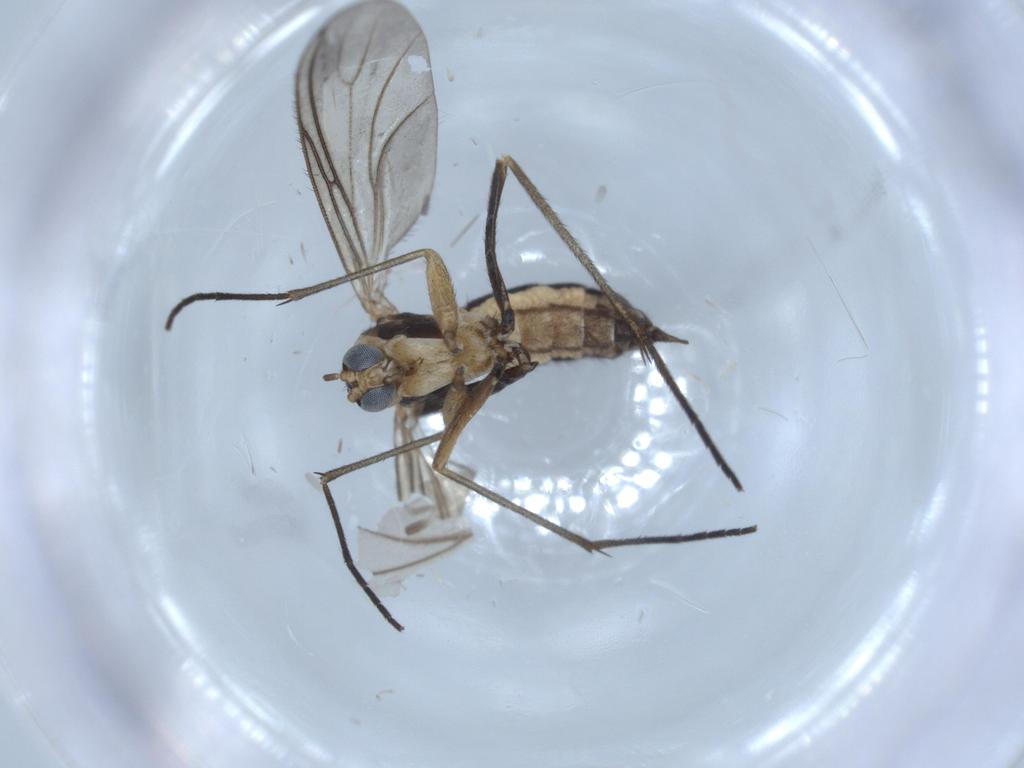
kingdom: Animalia
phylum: Arthropoda
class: Insecta
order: Diptera
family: Sciaridae
